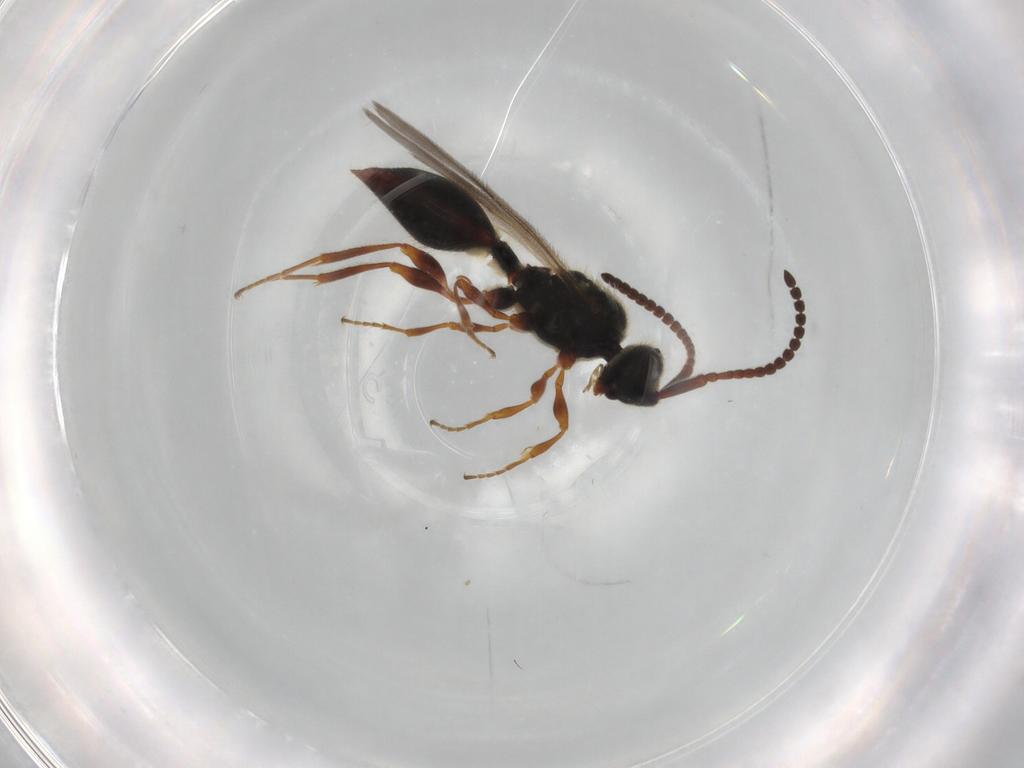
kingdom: Animalia
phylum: Arthropoda
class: Insecta
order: Hymenoptera
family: Diapriidae
